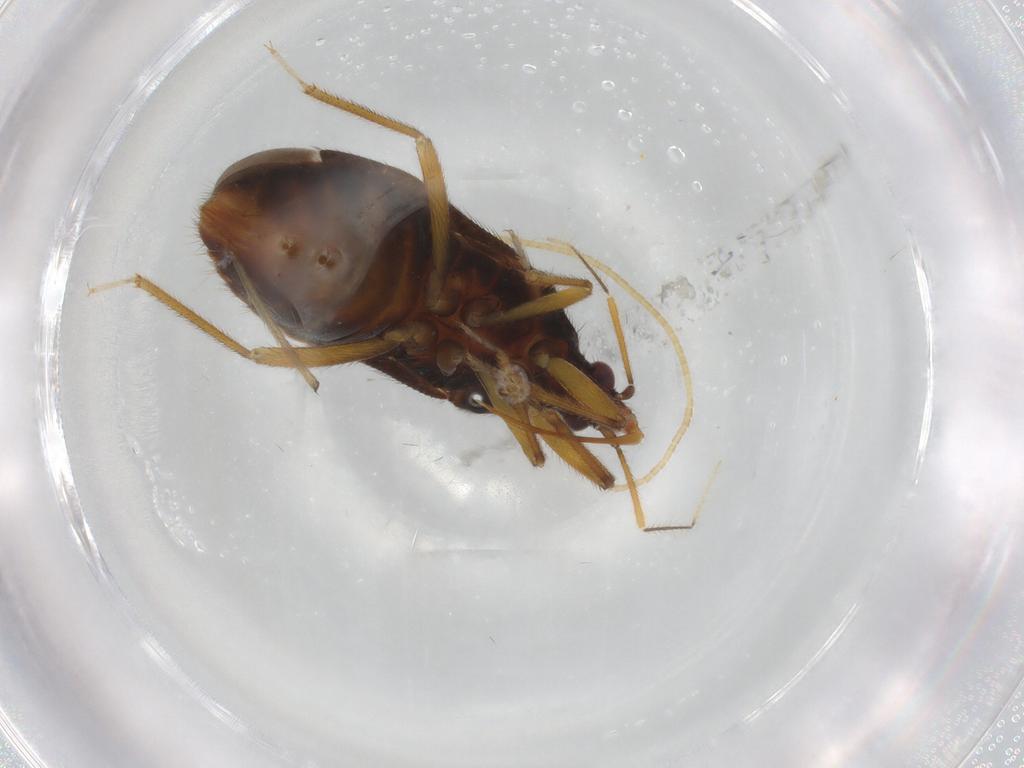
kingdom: Animalia
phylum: Arthropoda
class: Insecta
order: Hemiptera
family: Anthocoridae
